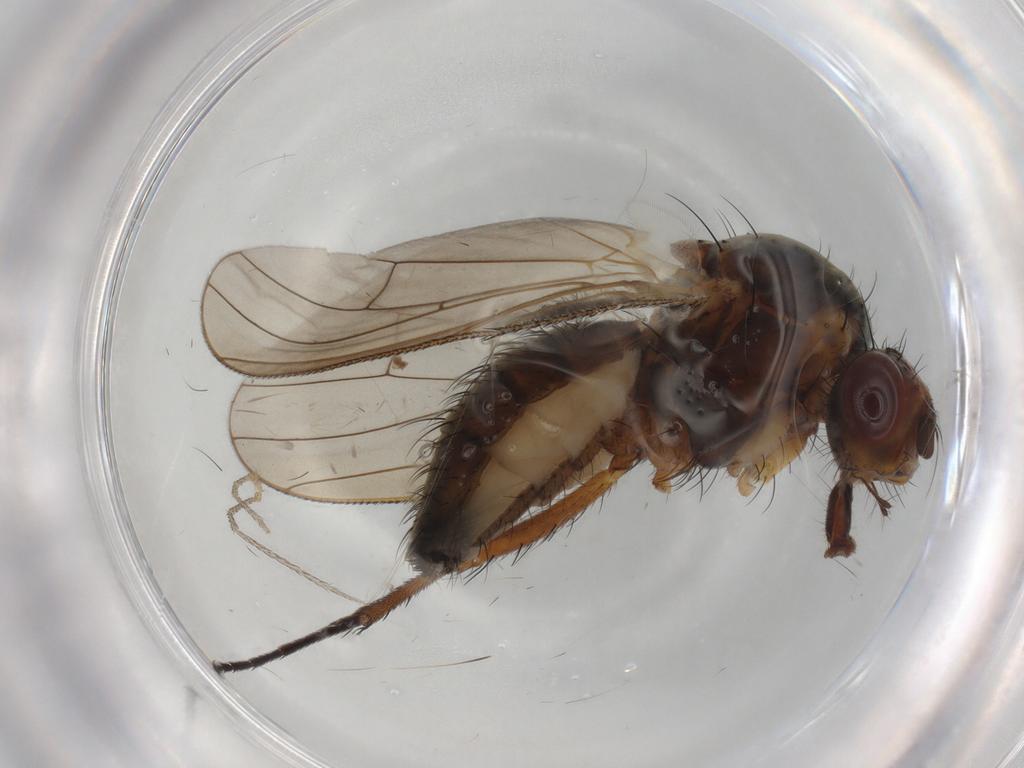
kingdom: Animalia
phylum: Arthropoda
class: Insecta
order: Diptera
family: Anthomyiidae
